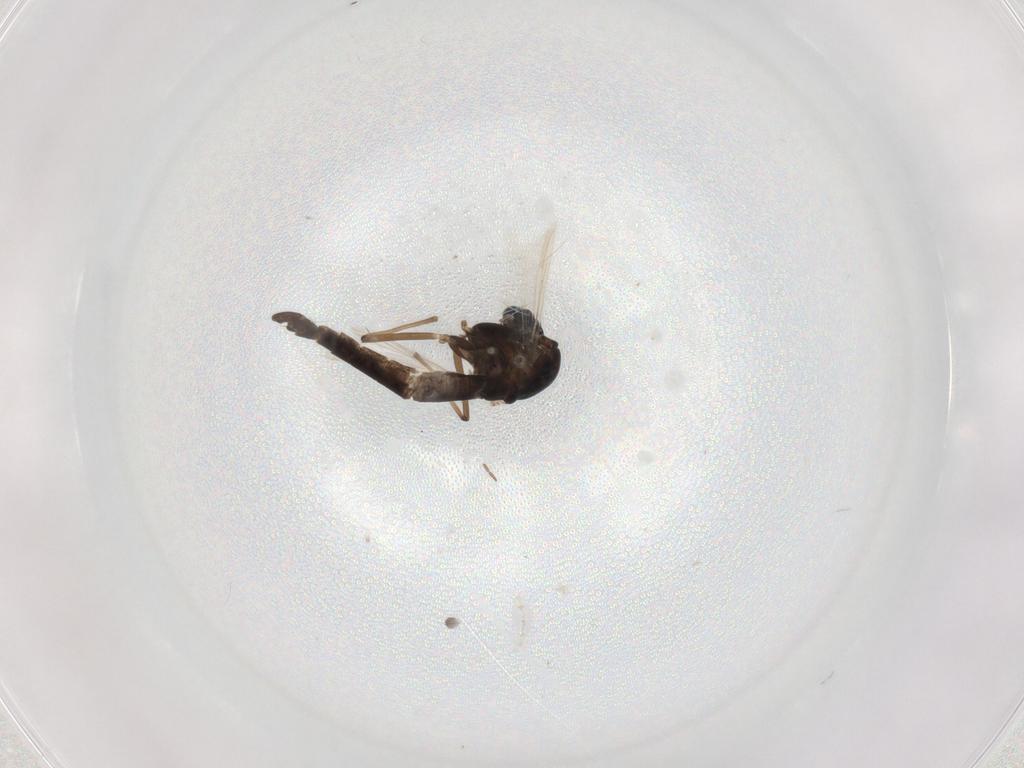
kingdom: Animalia
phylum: Arthropoda
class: Insecta
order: Diptera
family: Chironomidae
